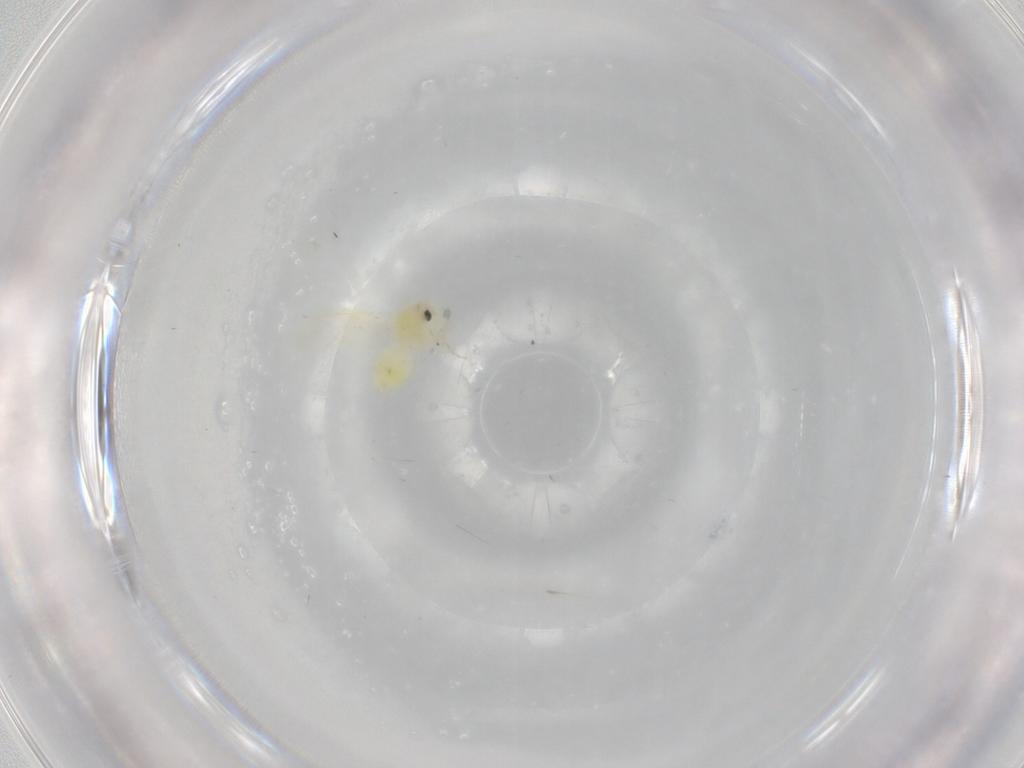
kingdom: Animalia
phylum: Arthropoda
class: Insecta
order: Hemiptera
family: Aleyrodidae
